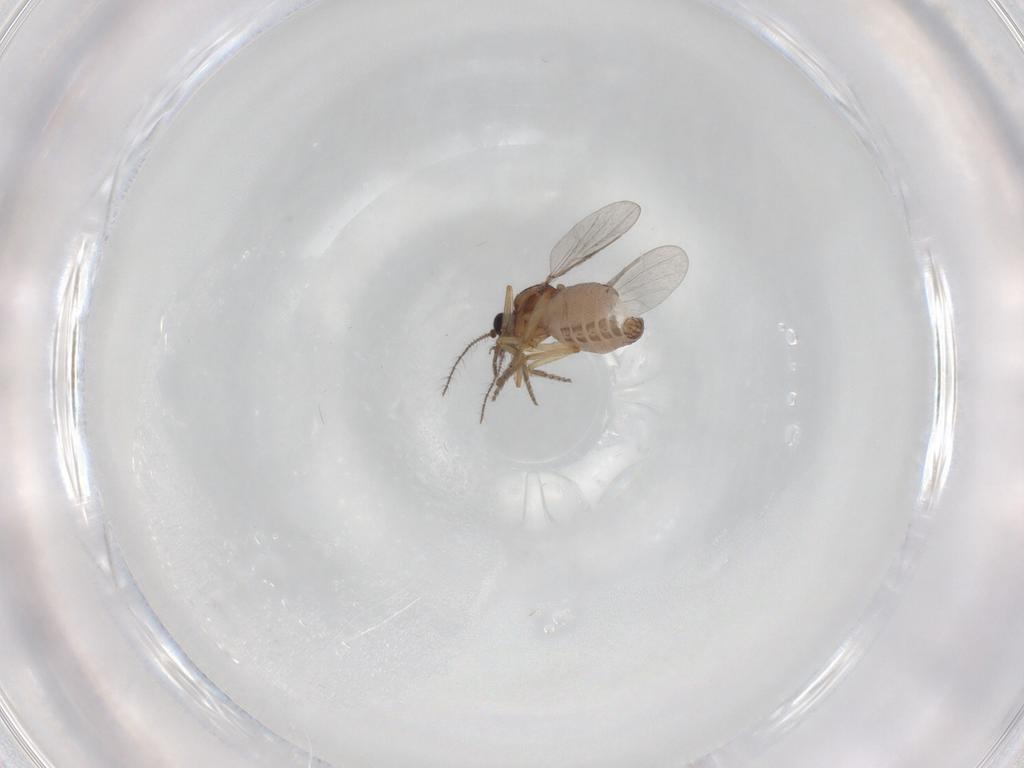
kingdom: Animalia
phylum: Arthropoda
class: Insecta
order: Diptera
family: Ceratopogonidae
